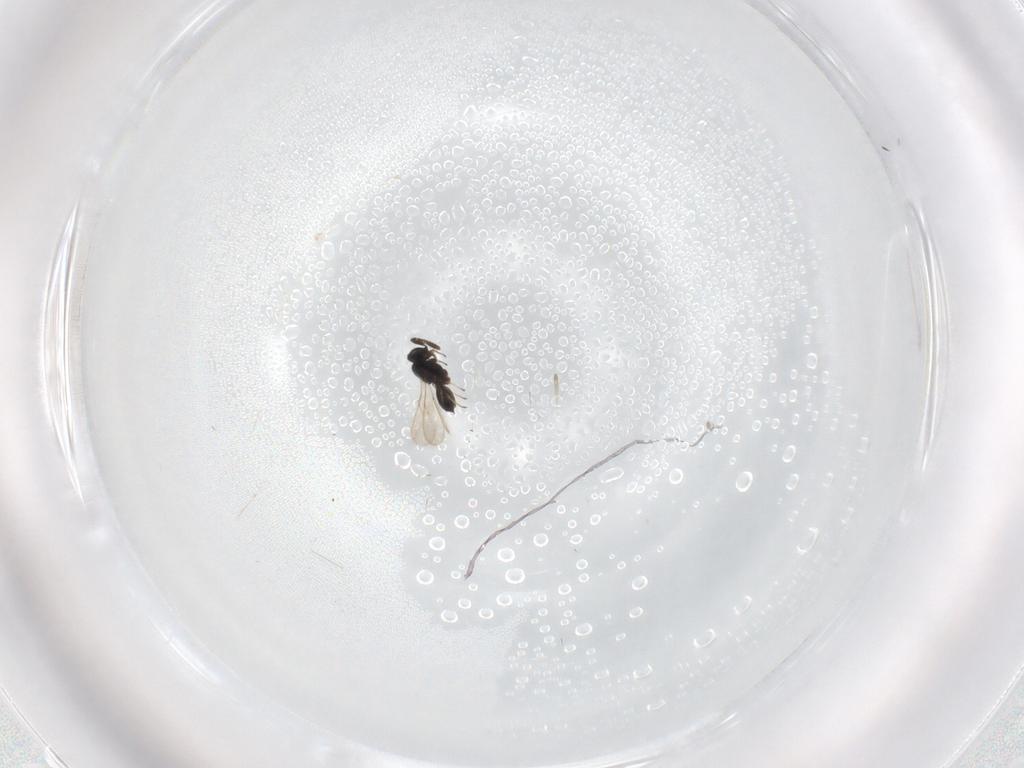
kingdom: Animalia
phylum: Arthropoda
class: Insecta
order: Hymenoptera
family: Scelionidae
